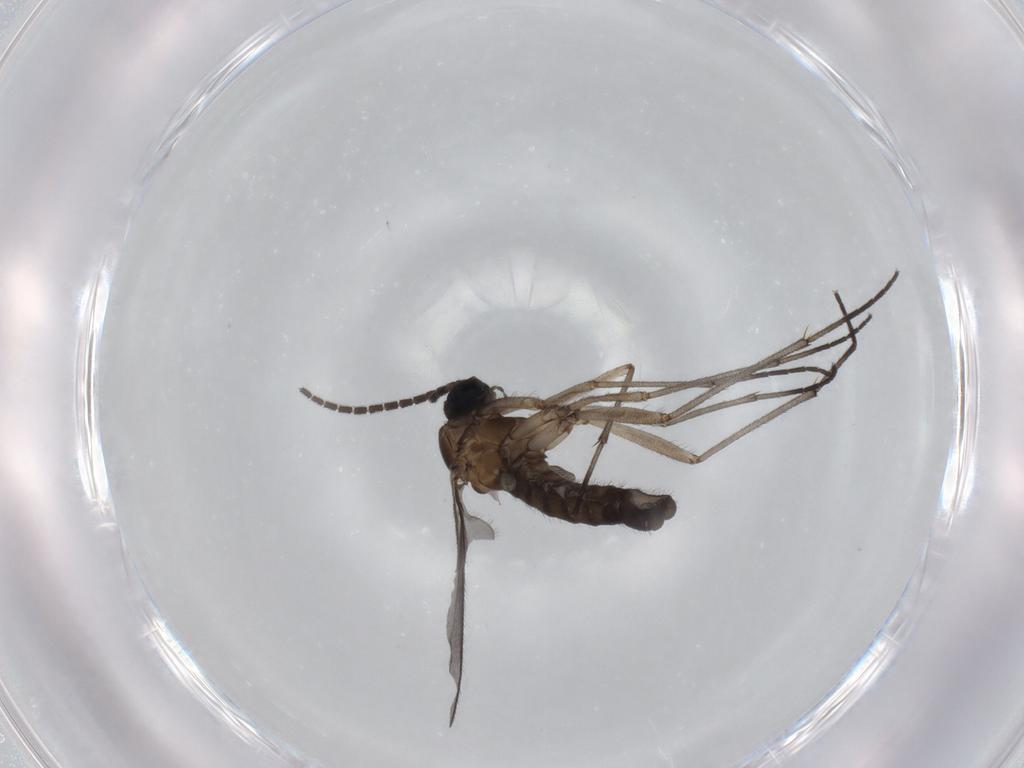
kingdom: Animalia
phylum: Arthropoda
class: Insecta
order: Diptera
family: Sciaridae
